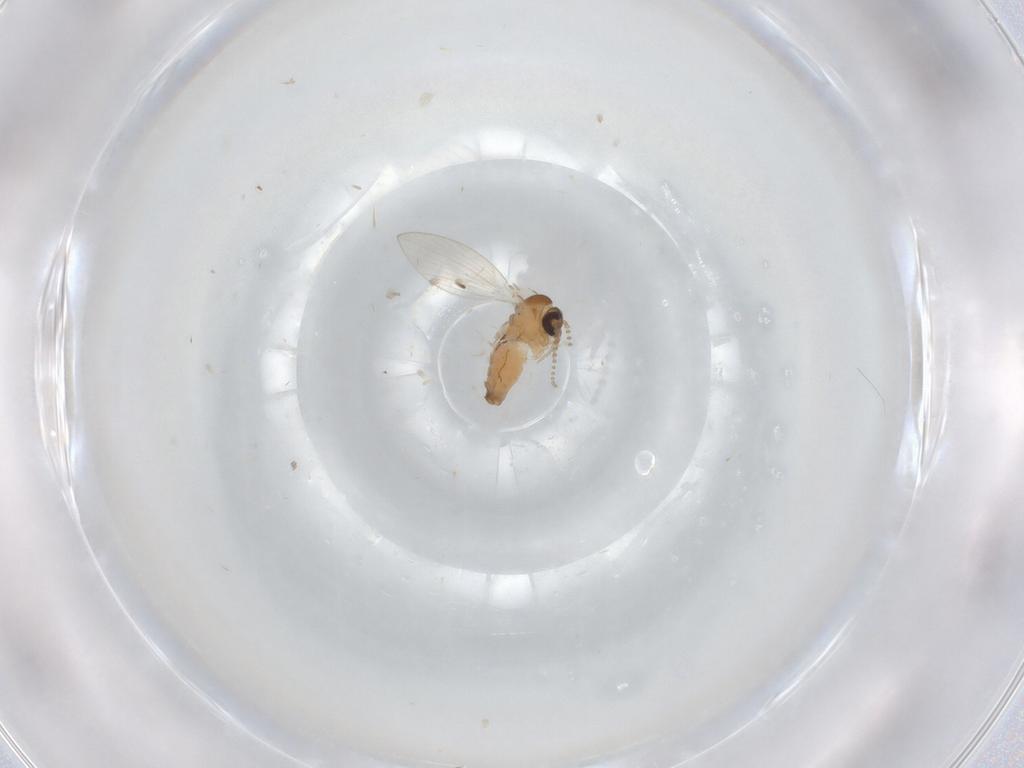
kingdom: Animalia
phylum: Arthropoda
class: Insecta
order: Diptera
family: Psychodidae
